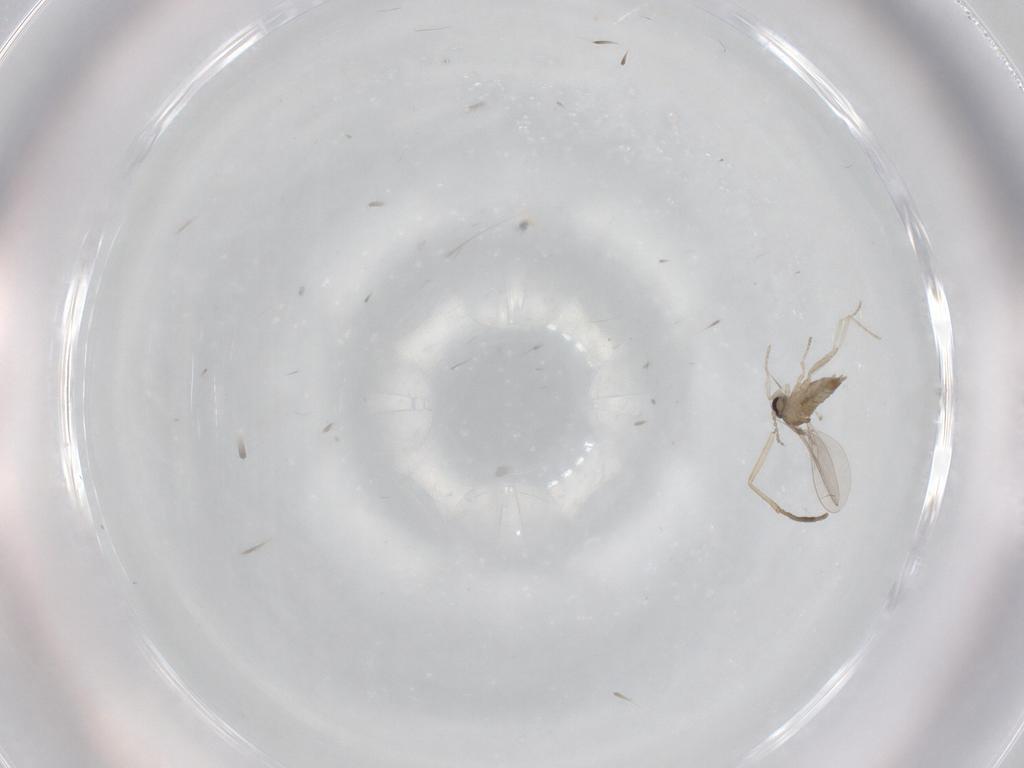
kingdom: Animalia
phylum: Arthropoda
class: Insecta
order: Diptera
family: Cecidomyiidae
